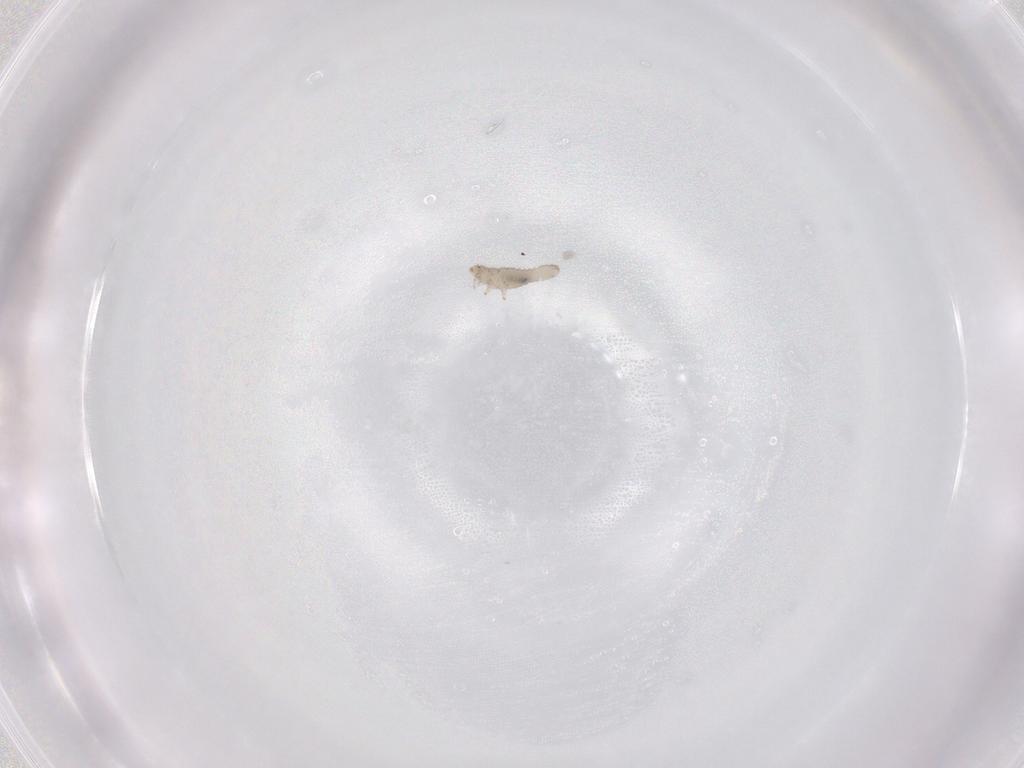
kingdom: Animalia
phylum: Arthropoda
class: Insecta
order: Coleoptera
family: Corylophidae
